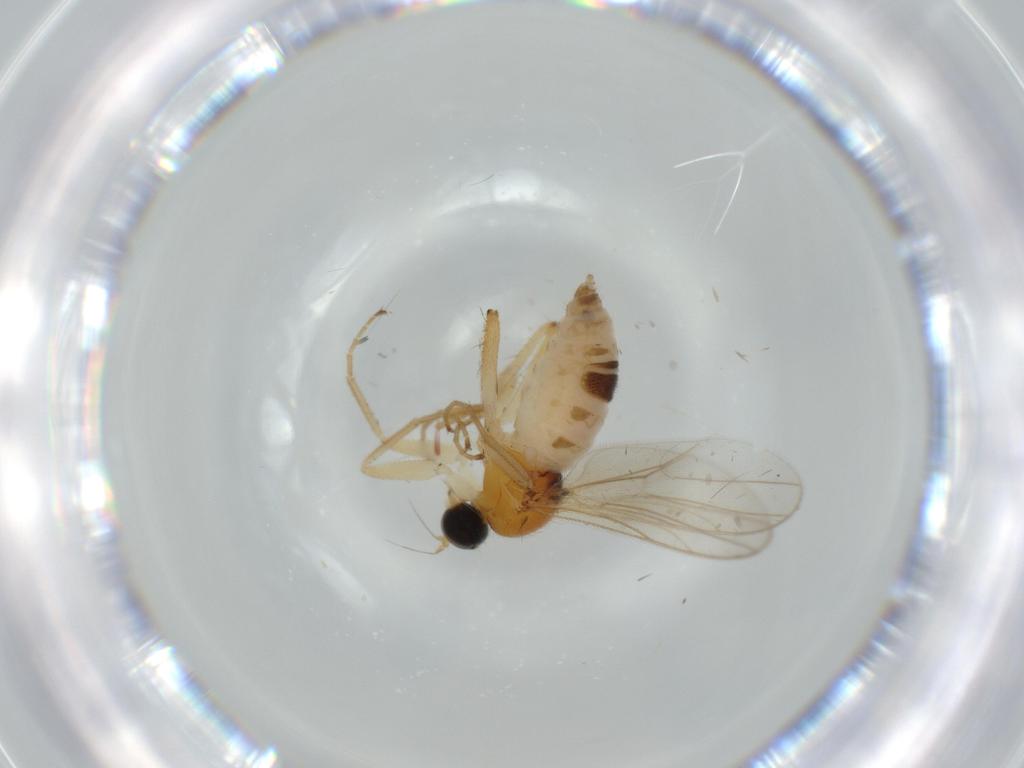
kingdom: Animalia
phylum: Arthropoda
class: Insecta
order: Diptera
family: Hybotidae
